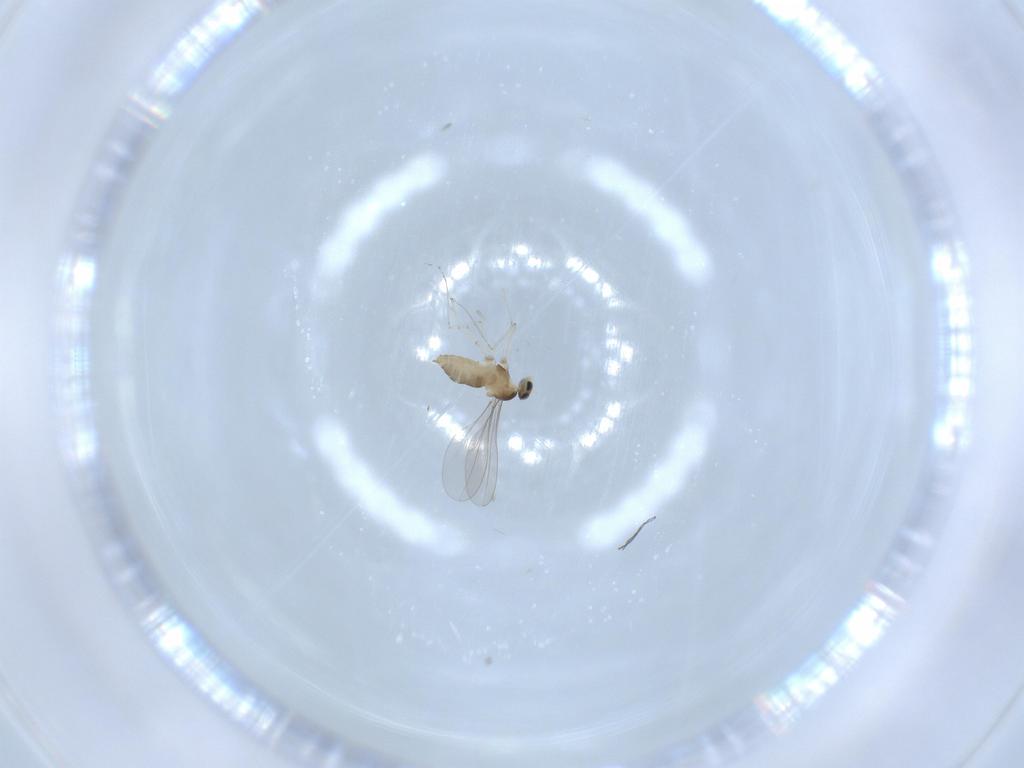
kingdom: Animalia
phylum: Arthropoda
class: Insecta
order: Diptera
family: Cecidomyiidae
